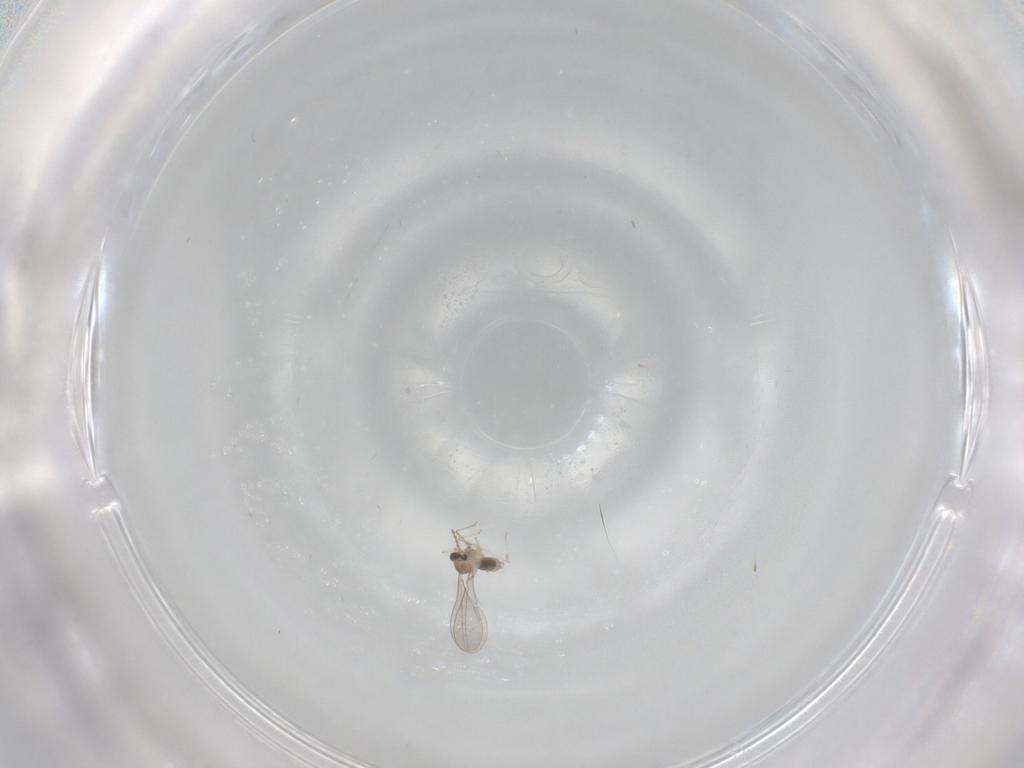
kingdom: Animalia
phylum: Arthropoda
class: Insecta
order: Diptera
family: Cecidomyiidae
